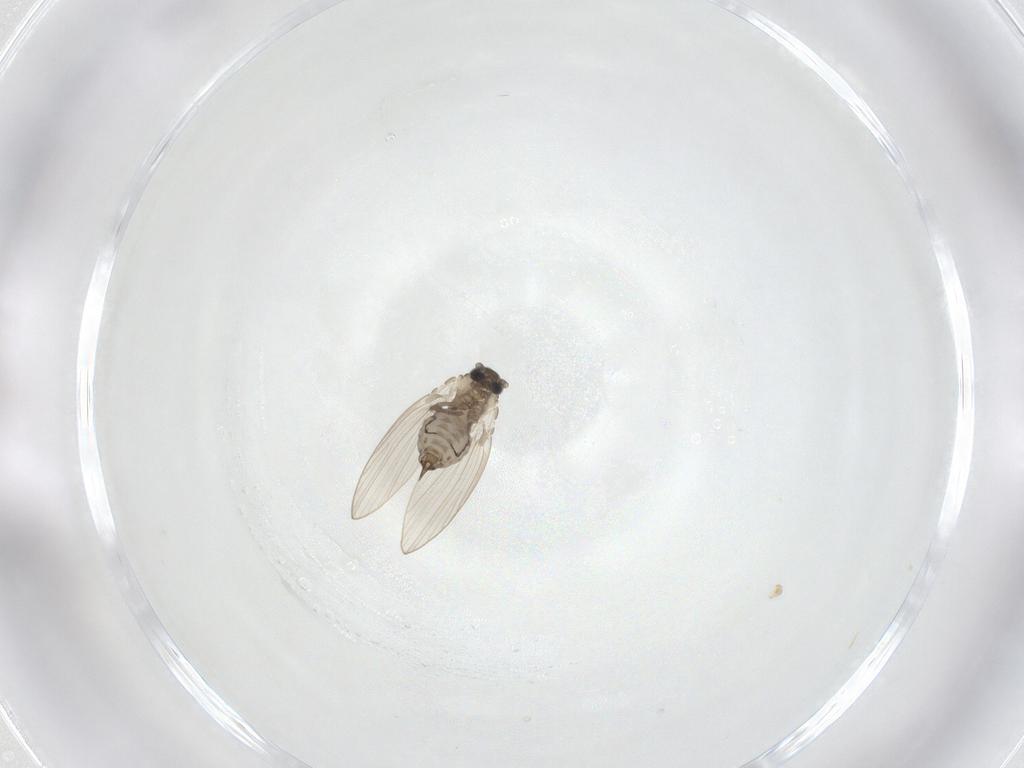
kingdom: Animalia
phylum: Arthropoda
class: Insecta
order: Diptera
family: Psychodidae
